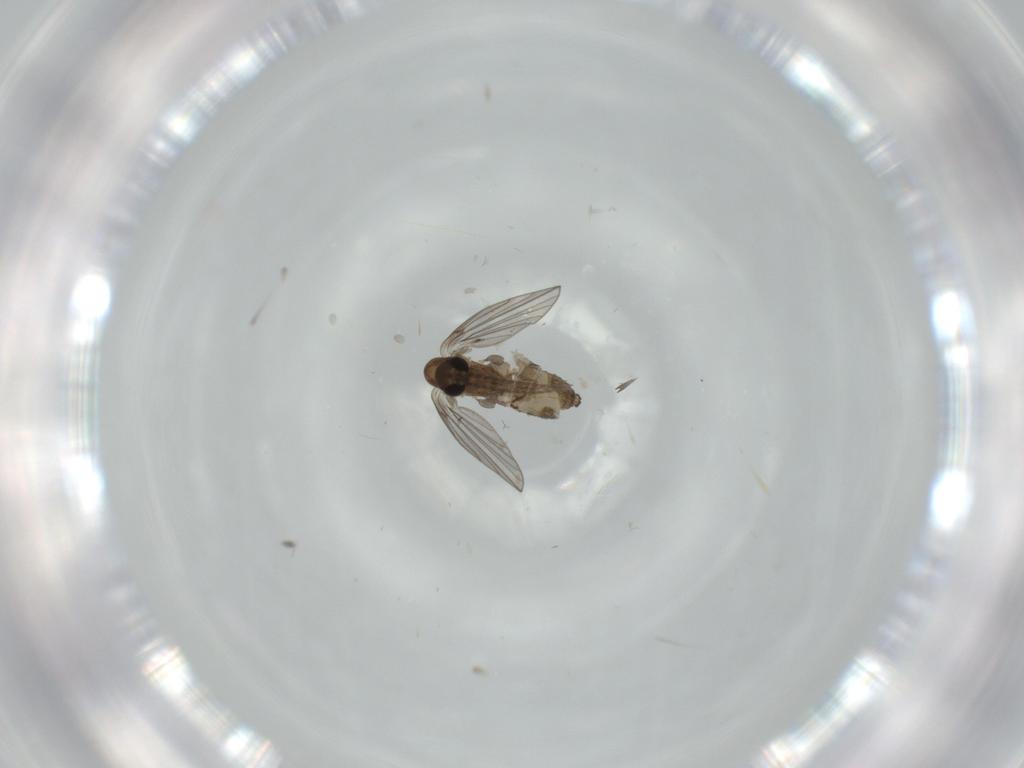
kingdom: Animalia
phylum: Arthropoda
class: Insecta
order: Diptera
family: Psychodidae
